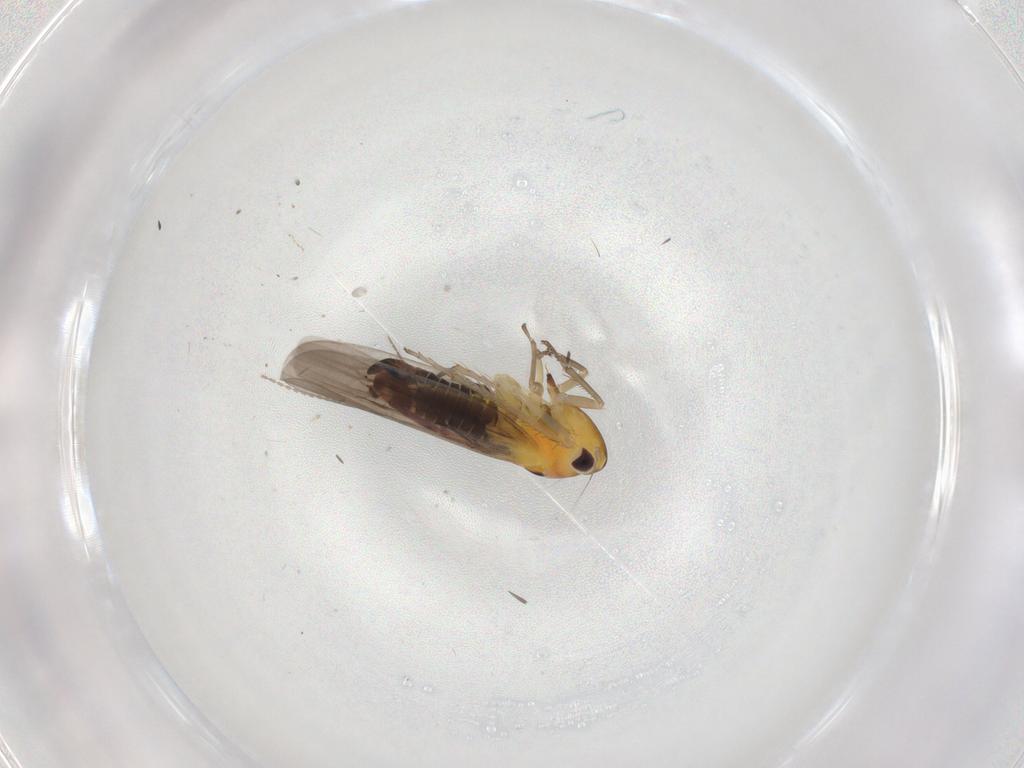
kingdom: Animalia
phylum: Arthropoda
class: Insecta
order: Hemiptera
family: Cicadellidae
